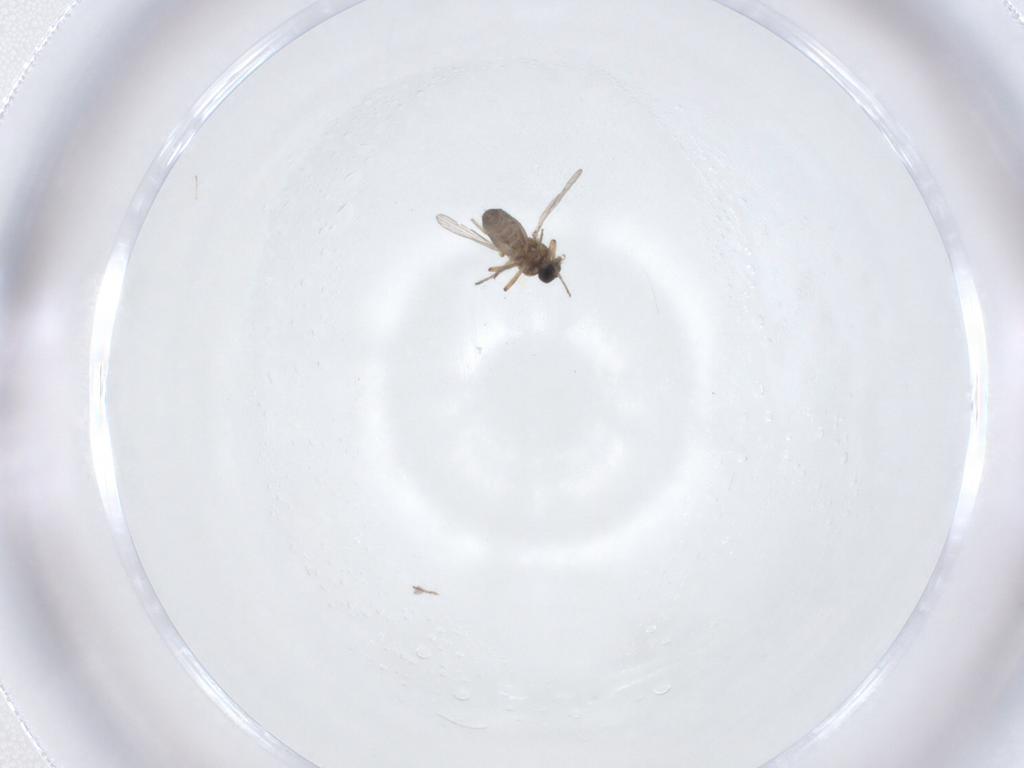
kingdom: Animalia
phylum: Arthropoda
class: Insecta
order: Diptera
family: Ceratopogonidae
